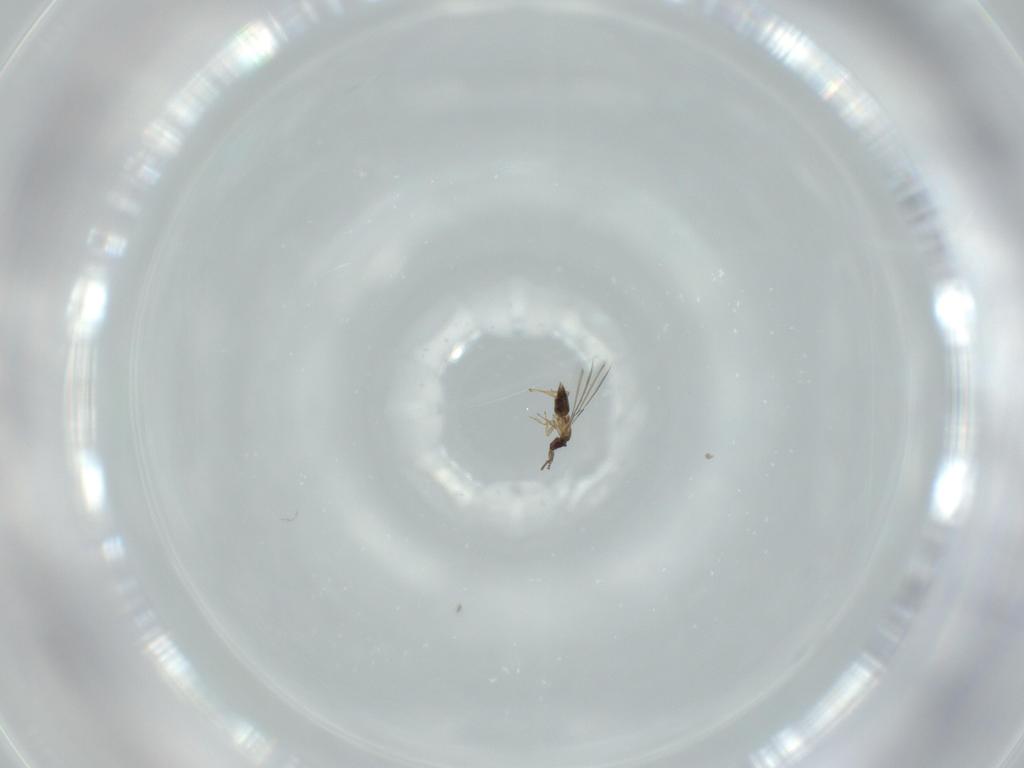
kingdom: Animalia
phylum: Arthropoda
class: Insecta
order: Hymenoptera
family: Mymaridae
